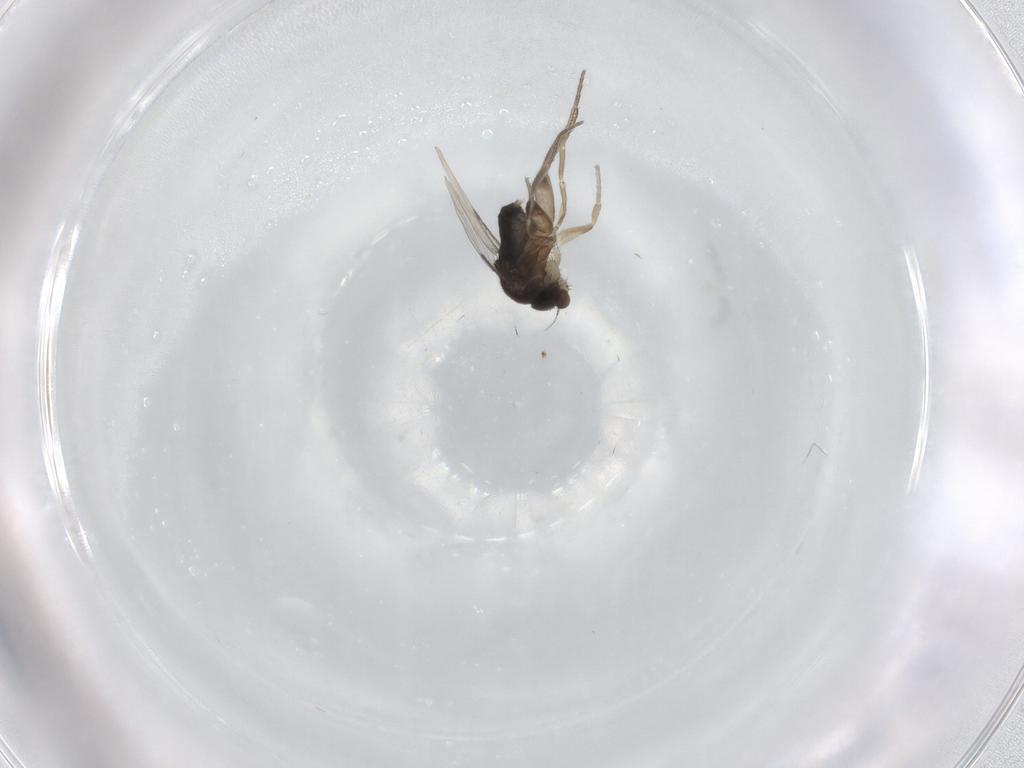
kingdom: Animalia
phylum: Arthropoda
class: Insecta
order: Diptera
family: Phoridae
